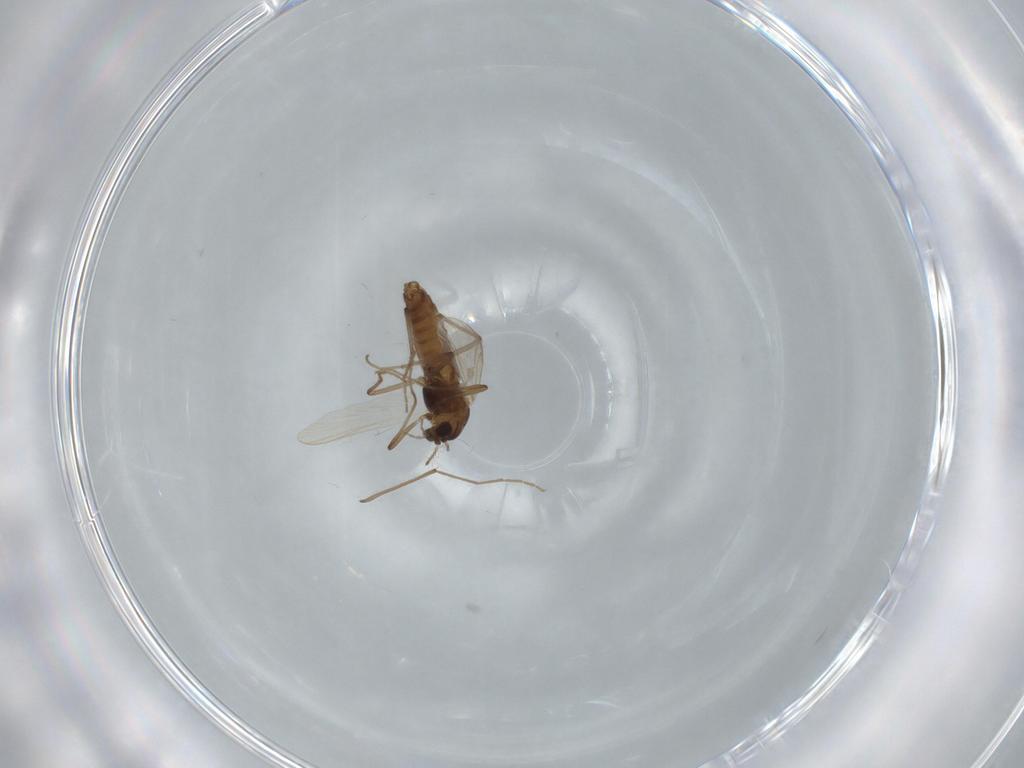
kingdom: Animalia
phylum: Arthropoda
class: Insecta
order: Diptera
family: Chironomidae
